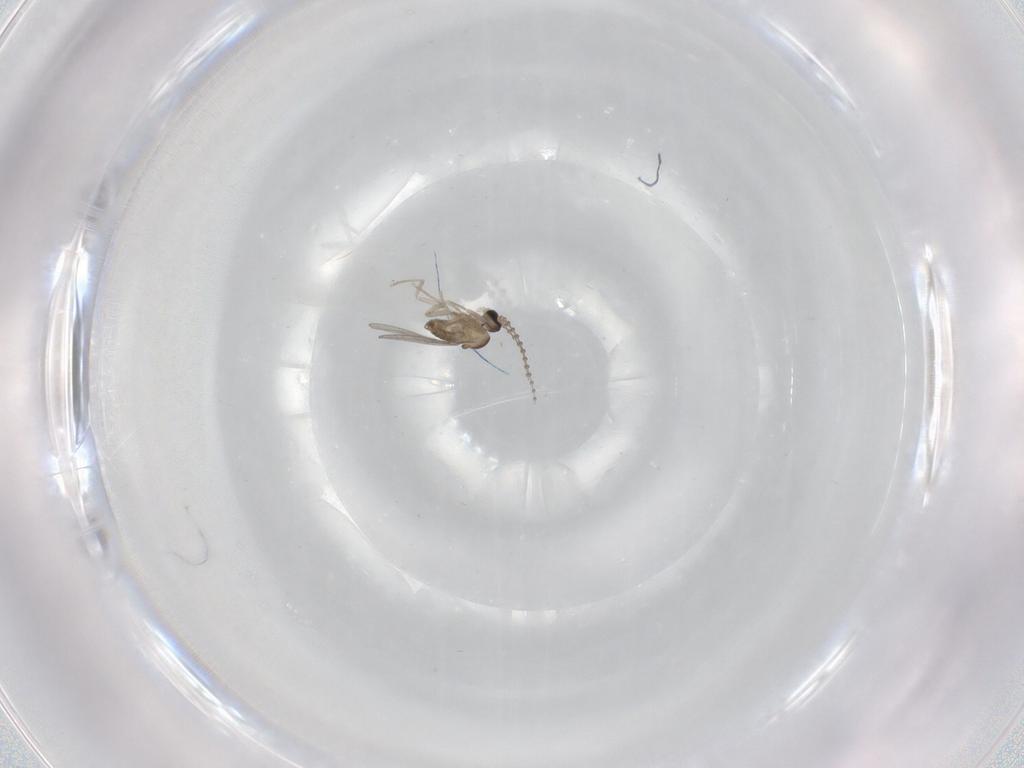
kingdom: Animalia
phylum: Arthropoda
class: Insecta
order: Diptera
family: Cecidomyiidae
